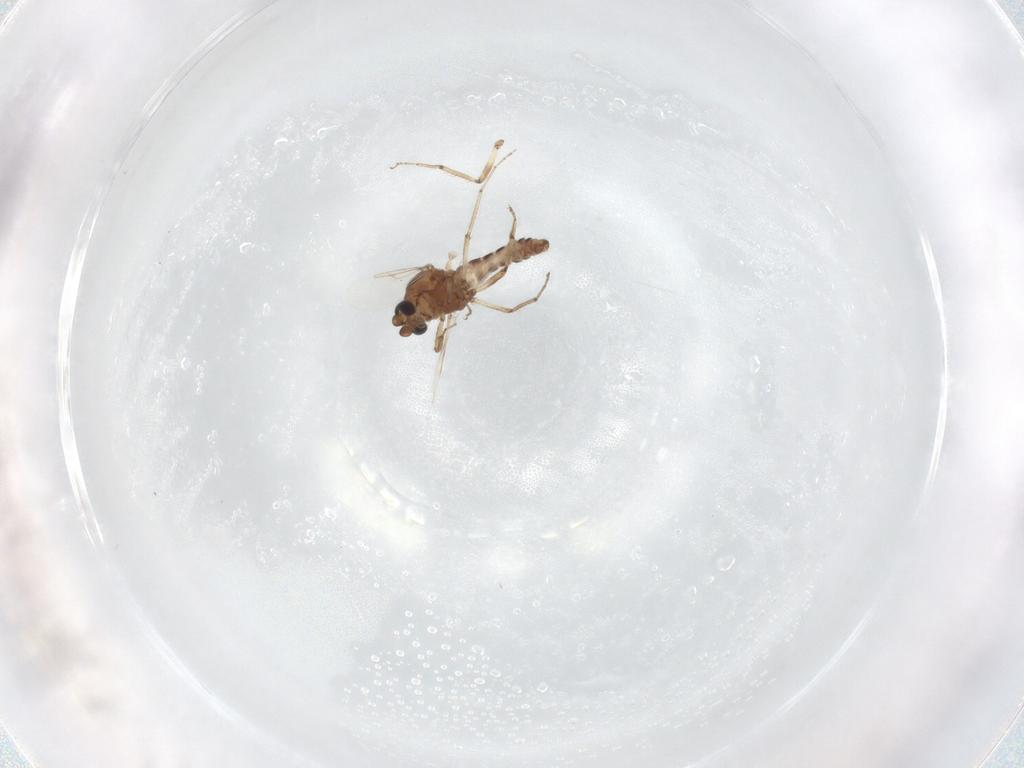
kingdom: Animalia
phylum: Arthropoda
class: Insecta
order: Diptera
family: Ceratopogonidae
